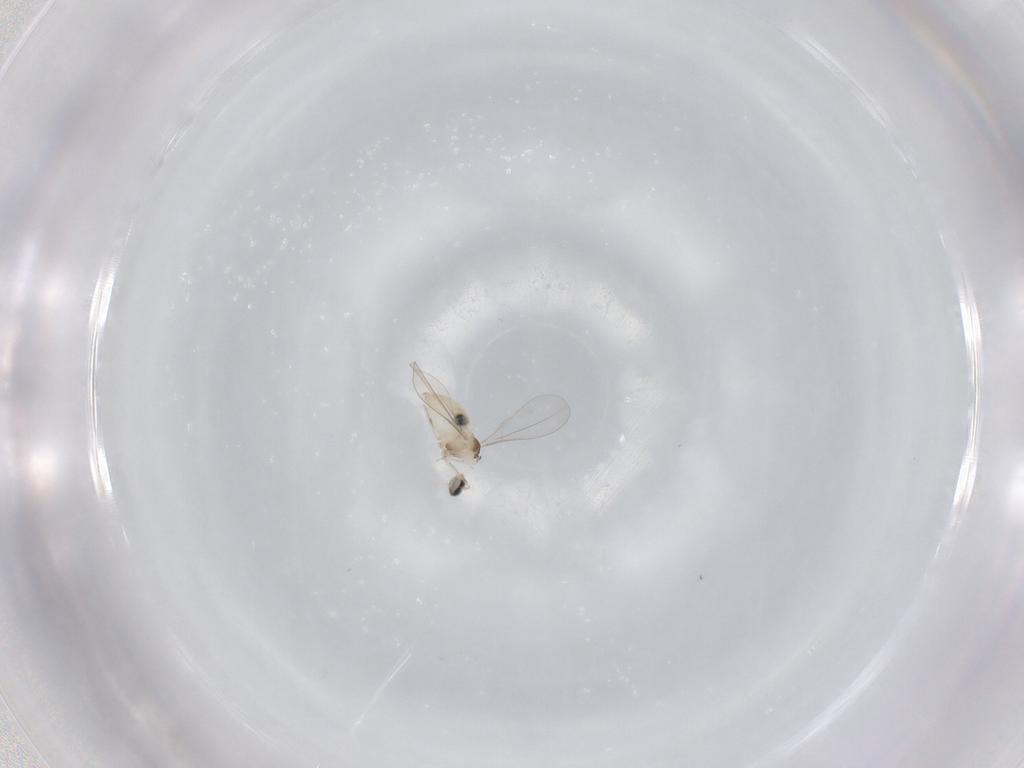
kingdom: Animalia
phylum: Arthropoda
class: Insecta
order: Diptera
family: Cecidomyiidae
